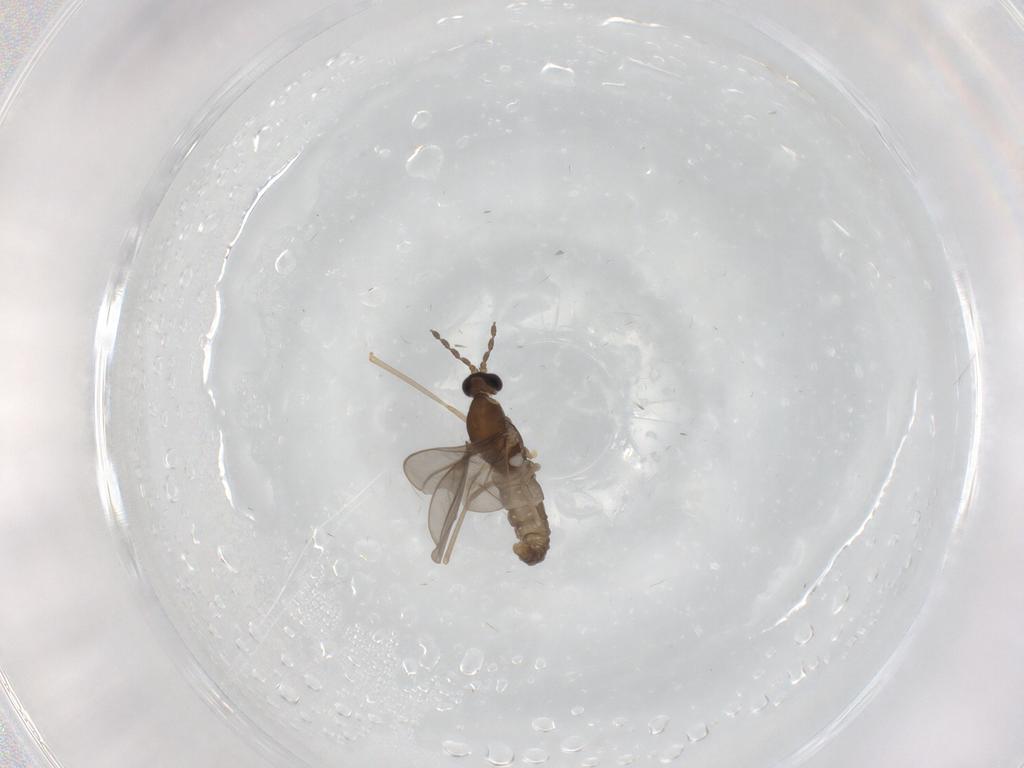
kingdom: Animalia
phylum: Arthropoda
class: Insecta
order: Diptera
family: Cecidomyiidae
